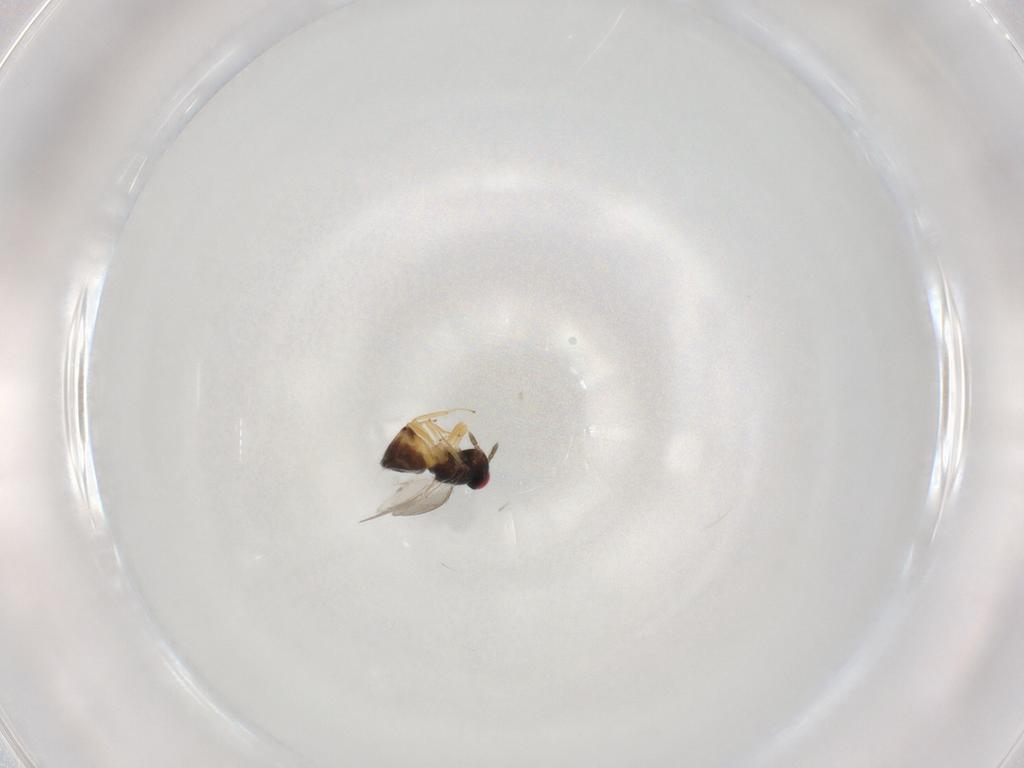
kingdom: Animalia
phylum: Arthropoda
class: Insecta
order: Hymenoptera
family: Eulophidae
